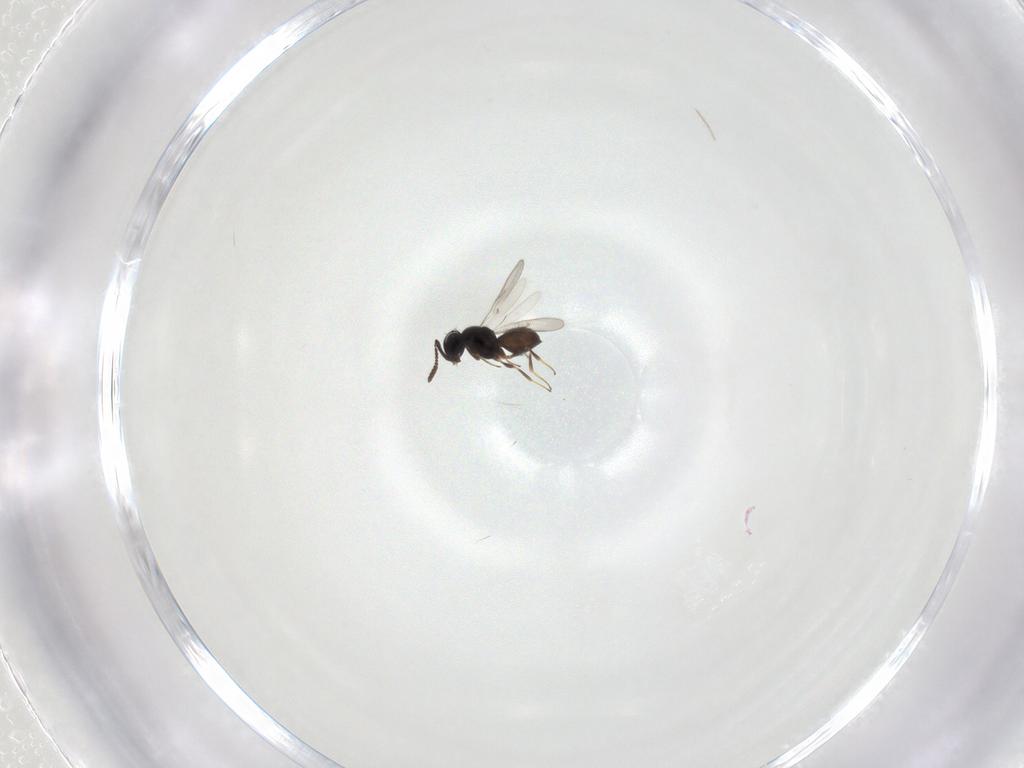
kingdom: Animalia
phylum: Arthropoda
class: Insecta
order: Hymenoptera
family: Scelionidae
